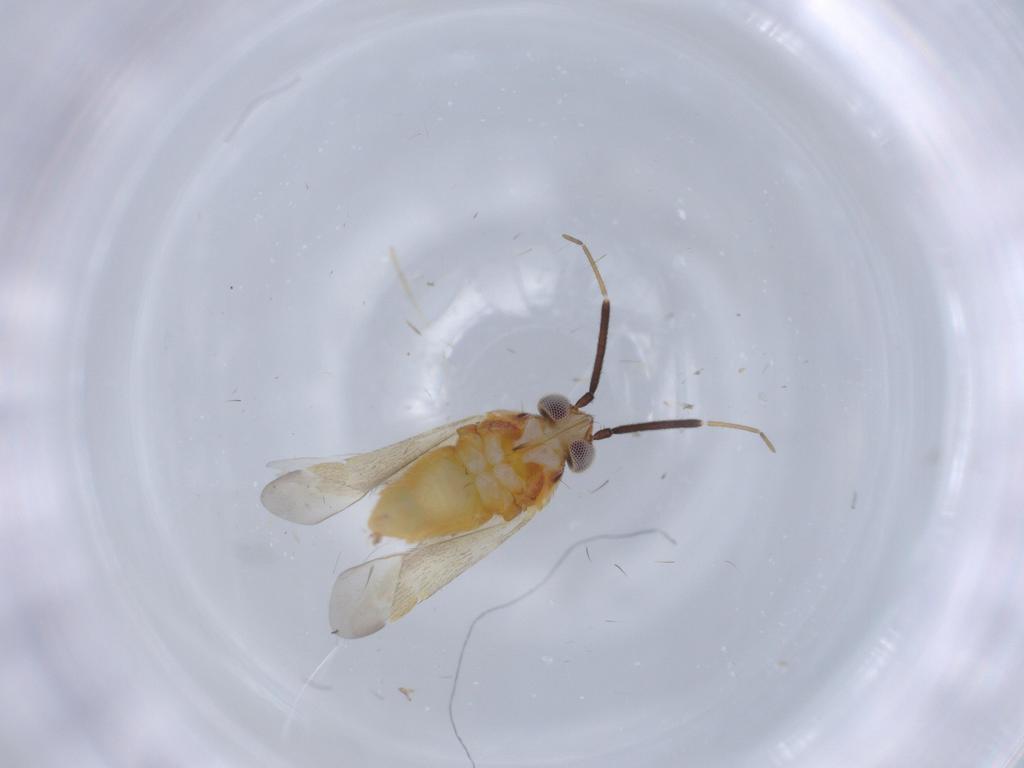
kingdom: Animalia
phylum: Arthropoda
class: Insecta
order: Hemiptera
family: Miridae
